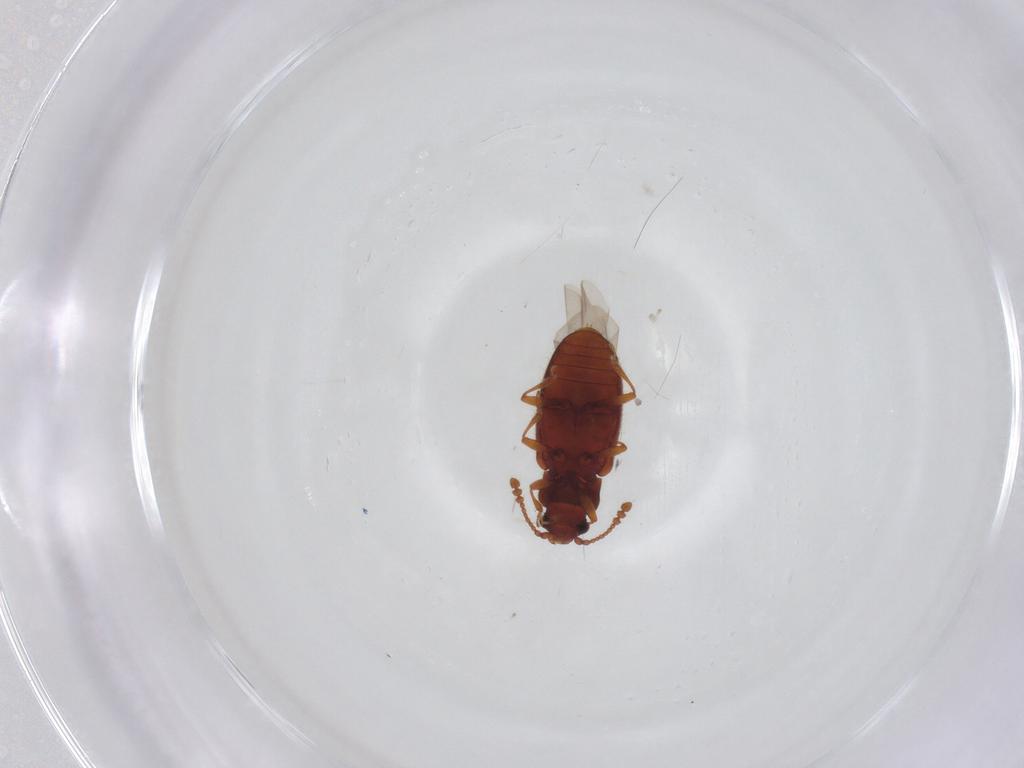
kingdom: Animalia
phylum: Arthropoda
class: Insecta
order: Coleoptera
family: Cryptophagidae
